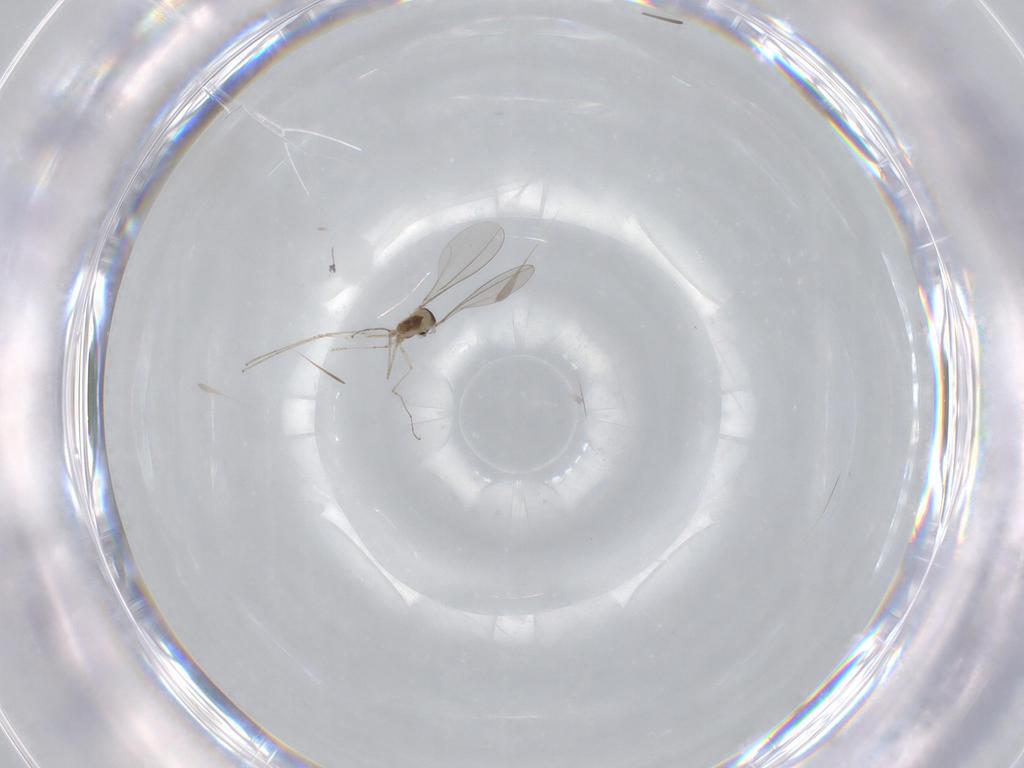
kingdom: Animalia
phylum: Arthropoda
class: Insecta
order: Diptera
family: Cecidomyiidae
